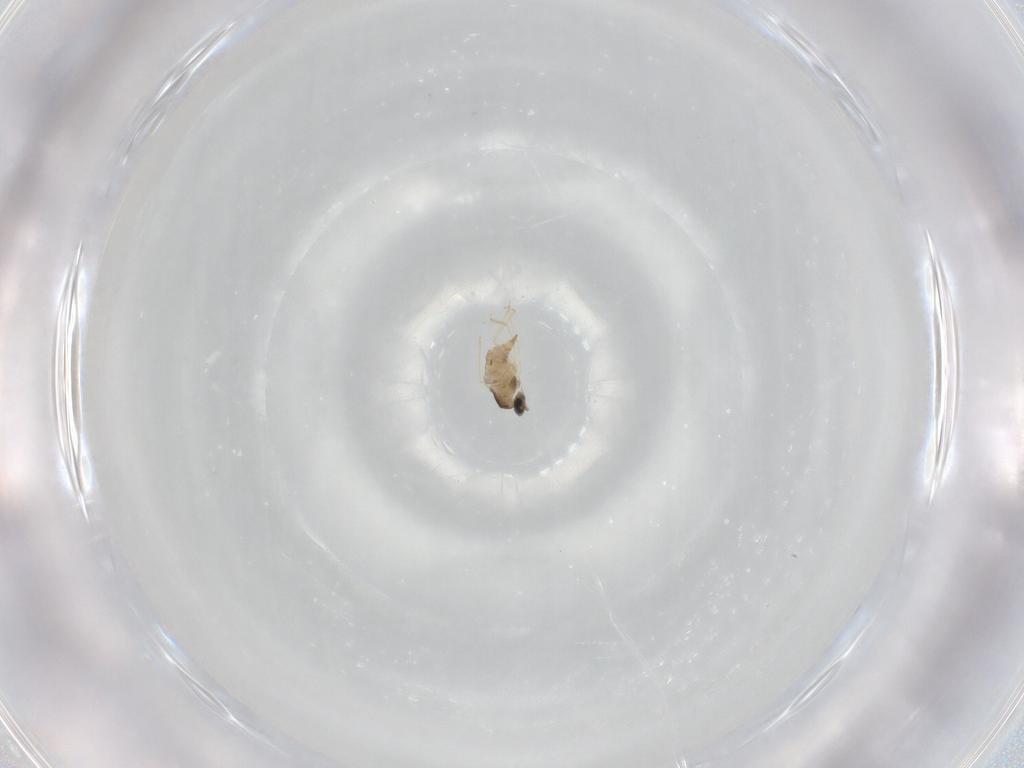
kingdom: Animalia
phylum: Arthropoda
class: Insecta
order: Diptera
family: Cecidomyiidae
